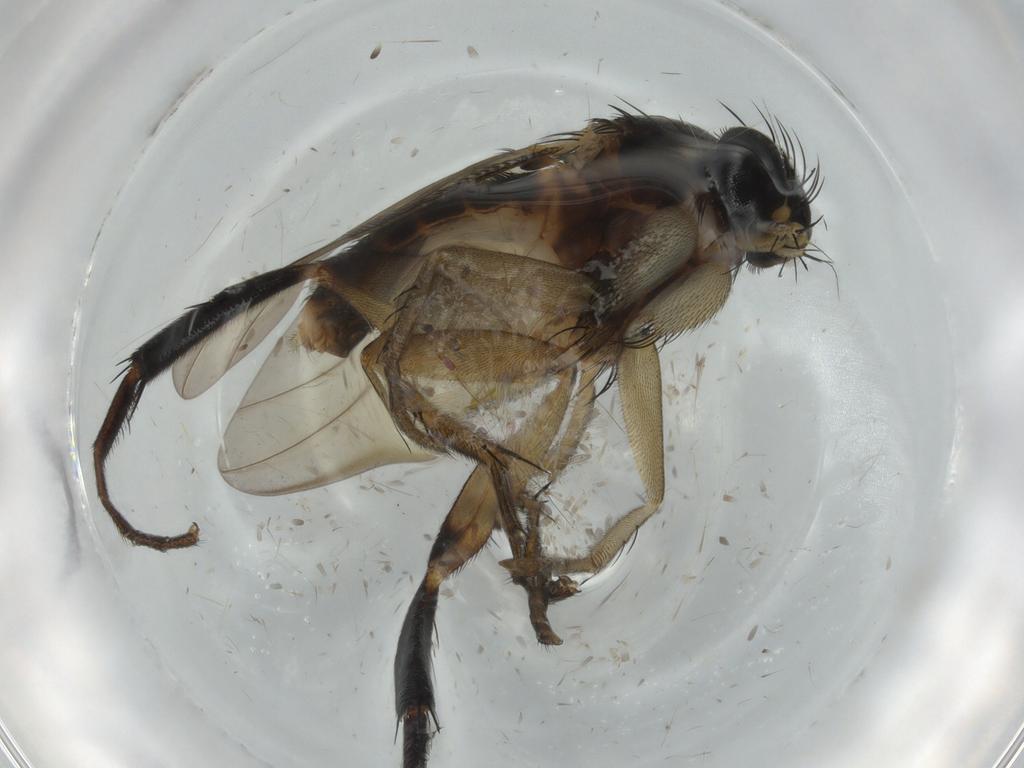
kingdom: Animalia
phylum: Arthropoda
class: Insecta
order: Diptera
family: Phoridae
